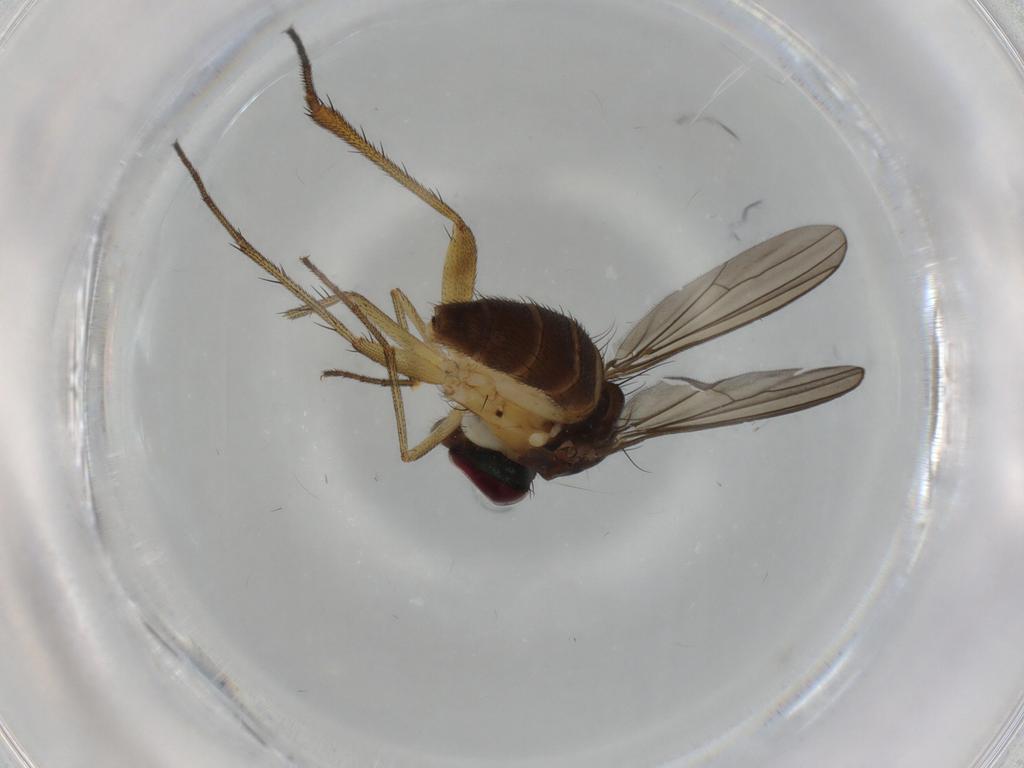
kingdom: Animalia
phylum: Arthropoda
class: Insecta
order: Diptera
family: Dolichopodidae
